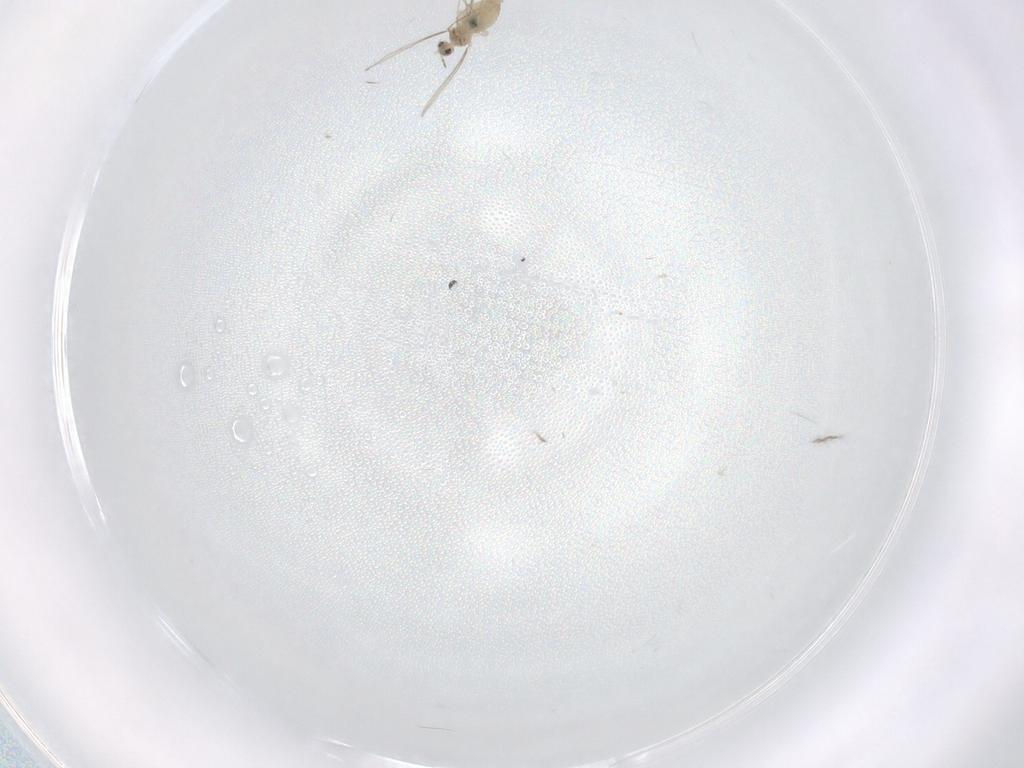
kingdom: Animalia
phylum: Arthropoda
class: Insecta
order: Diptera
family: Cecidomyiidae
